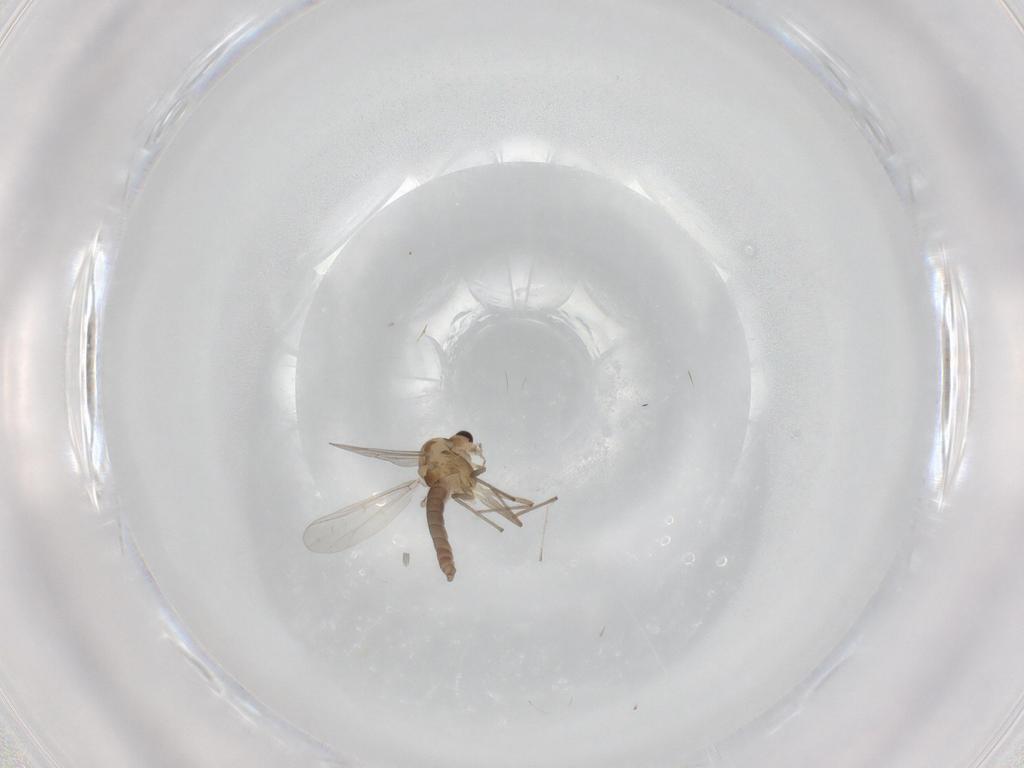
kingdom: Animalia
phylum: Arthropoda
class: Insecta
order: Diptera
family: Chironomidae
